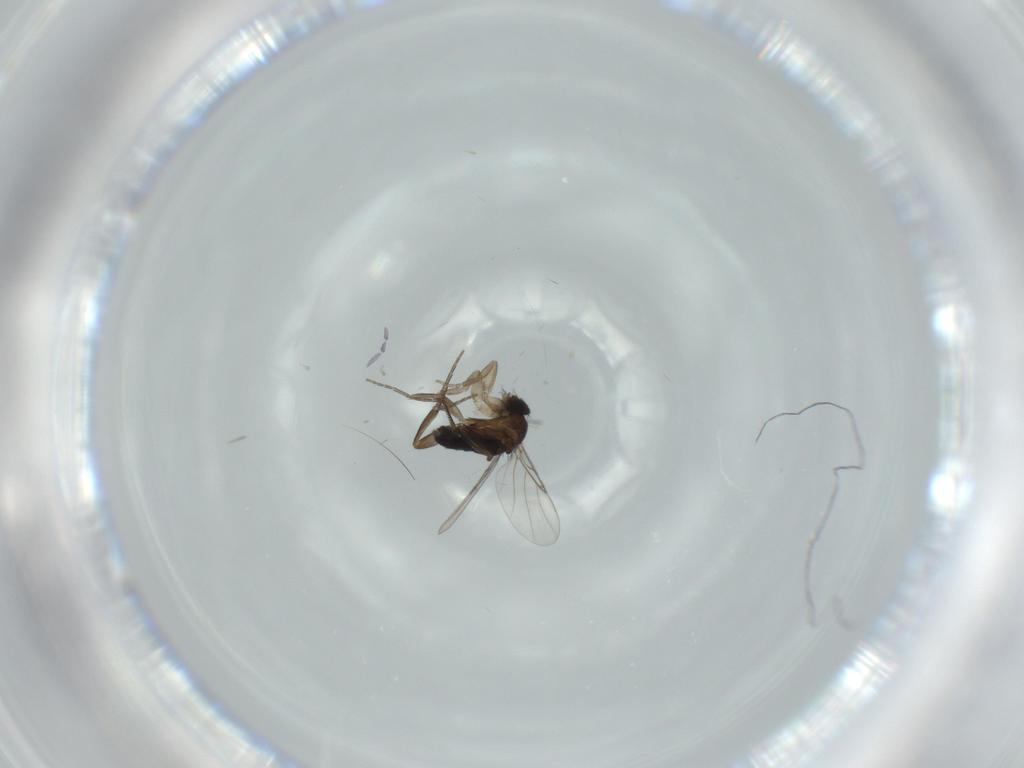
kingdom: Animalia
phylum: Arthropoda
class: Insecta
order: Diptera
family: Phoridae
